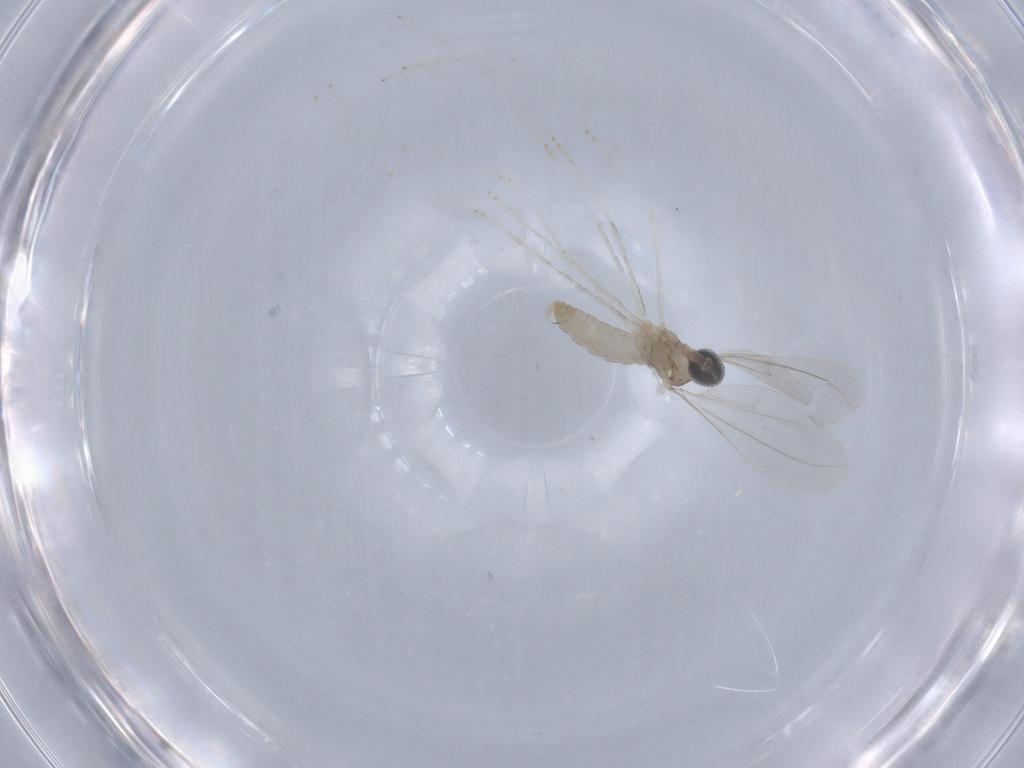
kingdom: Animalia
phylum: Arthropoda
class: Insecta
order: Diptera
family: Cecidomyiidae
